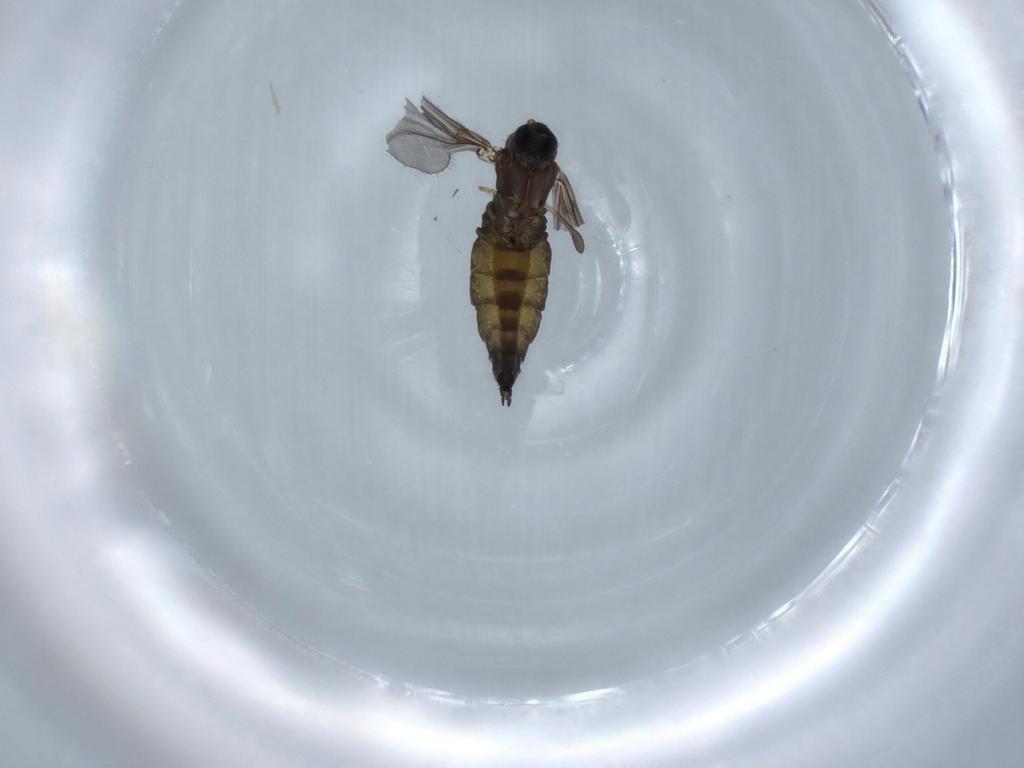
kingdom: Animalia
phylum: Arthropoda
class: Insecta
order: Diptera
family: Sciaridae
